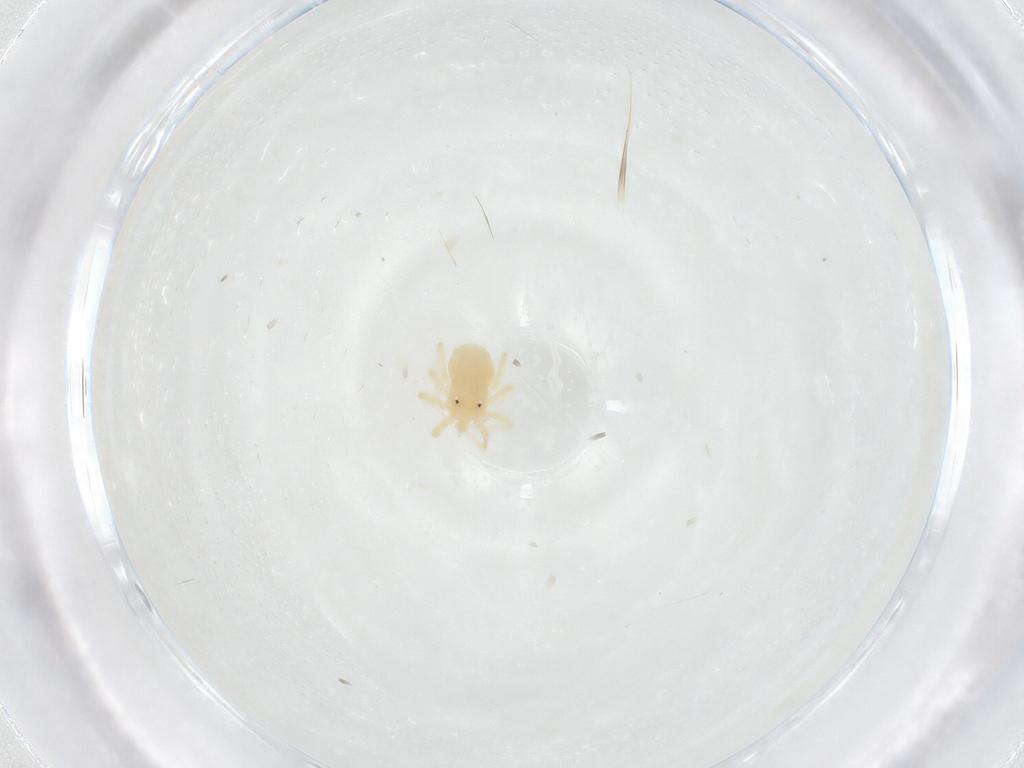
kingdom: Animalia
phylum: Arthropoda
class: Arachnida
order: Trombidiformes
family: Anystidae
